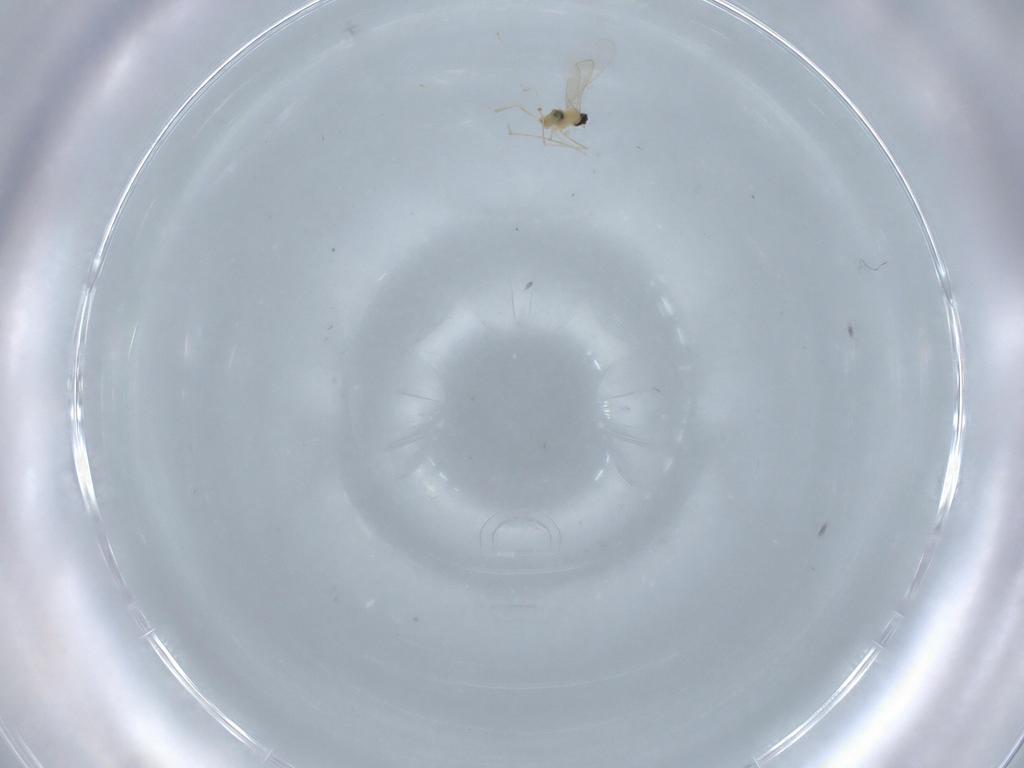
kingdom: Animalia
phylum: Arthropoda
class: Insecta
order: Diptera
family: Cecidomyiidae
